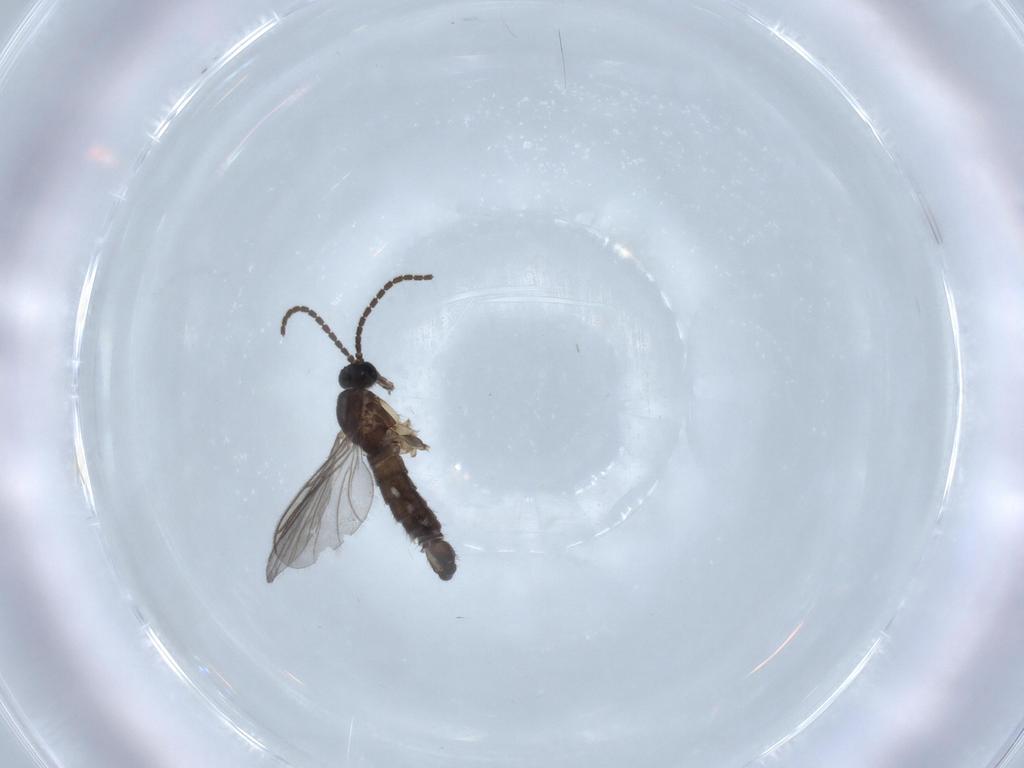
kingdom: Animalia
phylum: Arthropoda
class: Insecta
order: Diptera
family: Sciaridae
